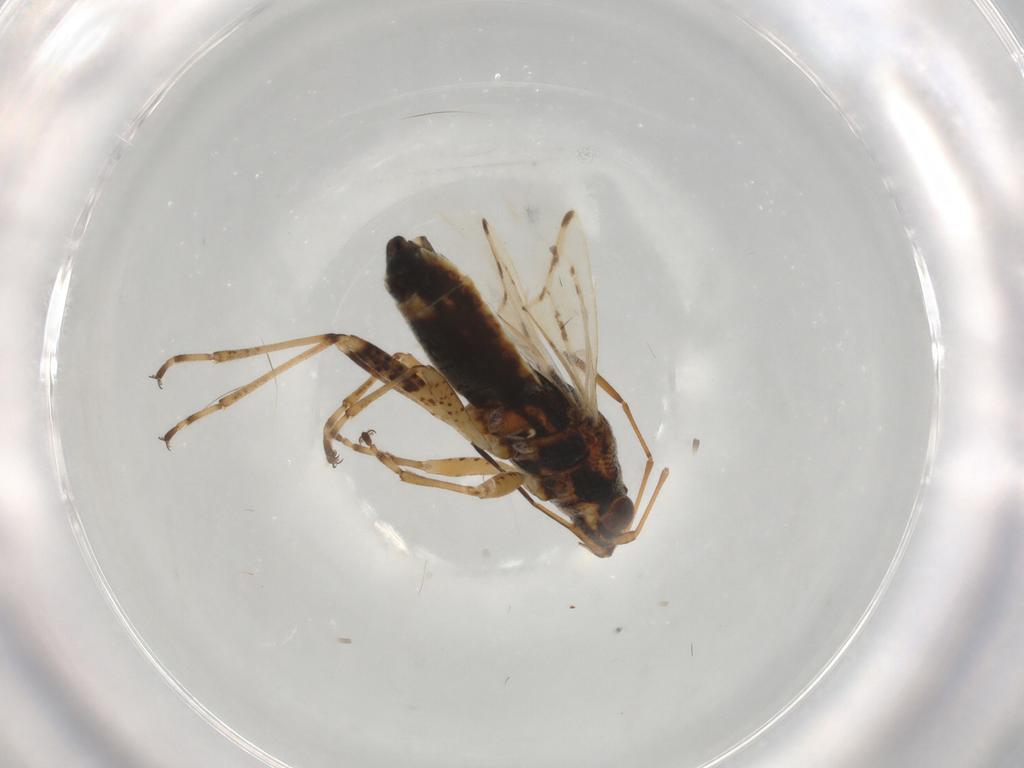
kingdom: Animalia
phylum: Arthropoda
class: Insecta
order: Hemiptera
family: Lygaeidae
